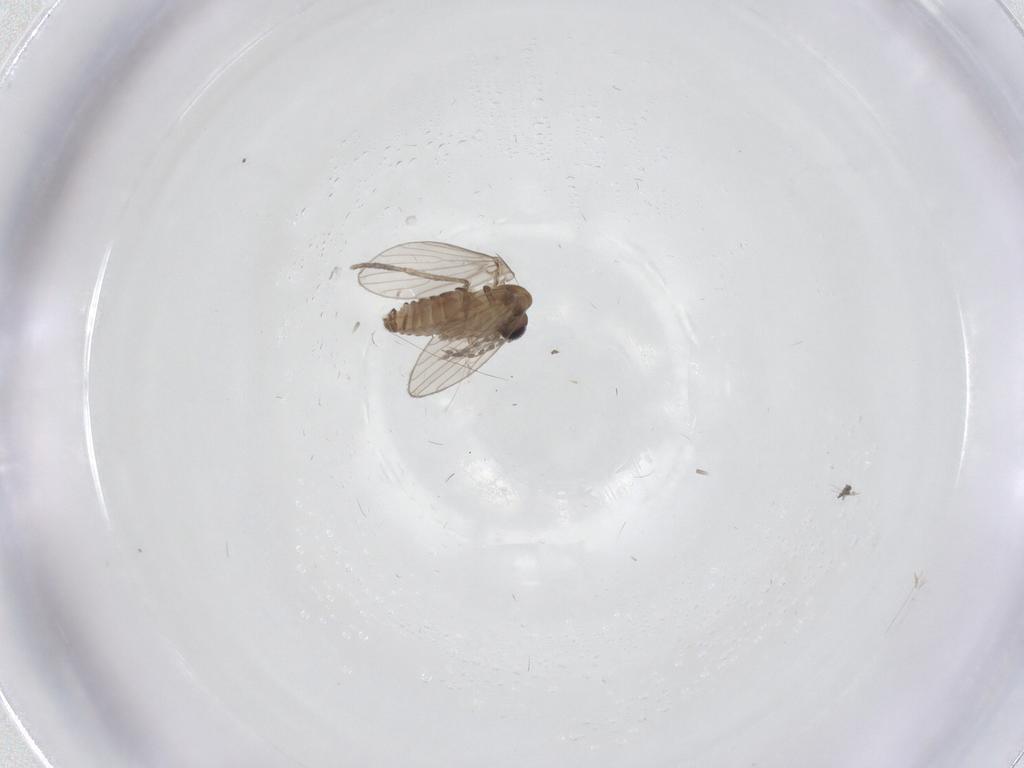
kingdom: Animalia
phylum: Arthropoda
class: Insecta
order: Diptera
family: Psychodidae
